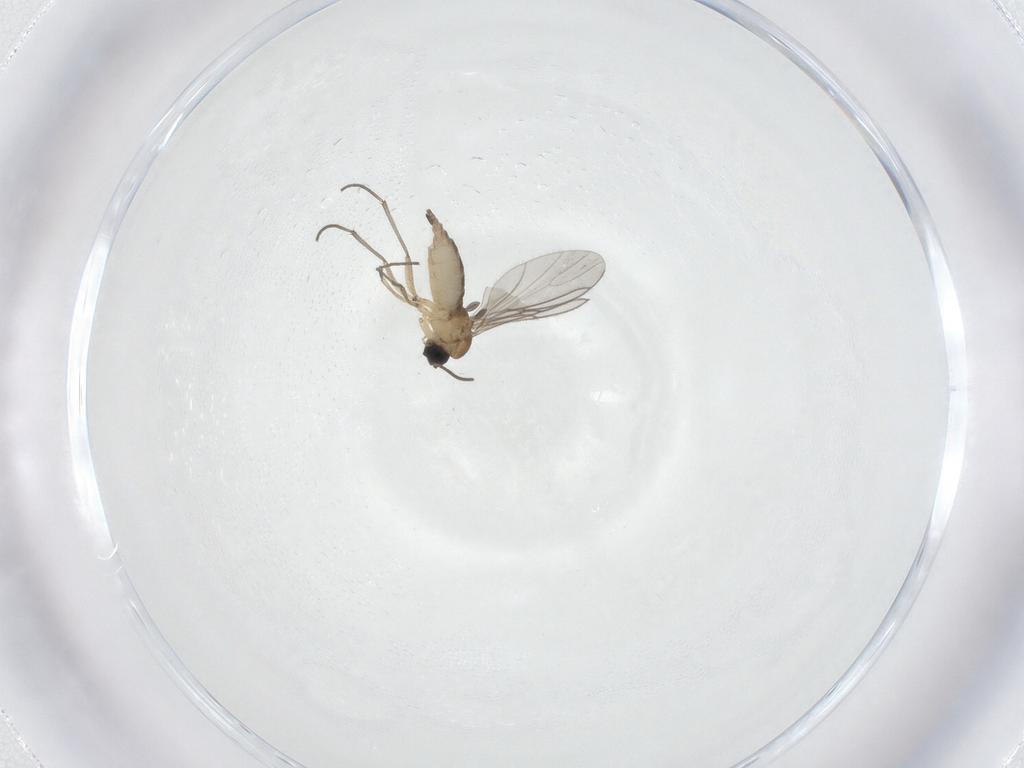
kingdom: Animalia
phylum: Arthropoda
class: Insecta
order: Diptera
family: Sciaridae
